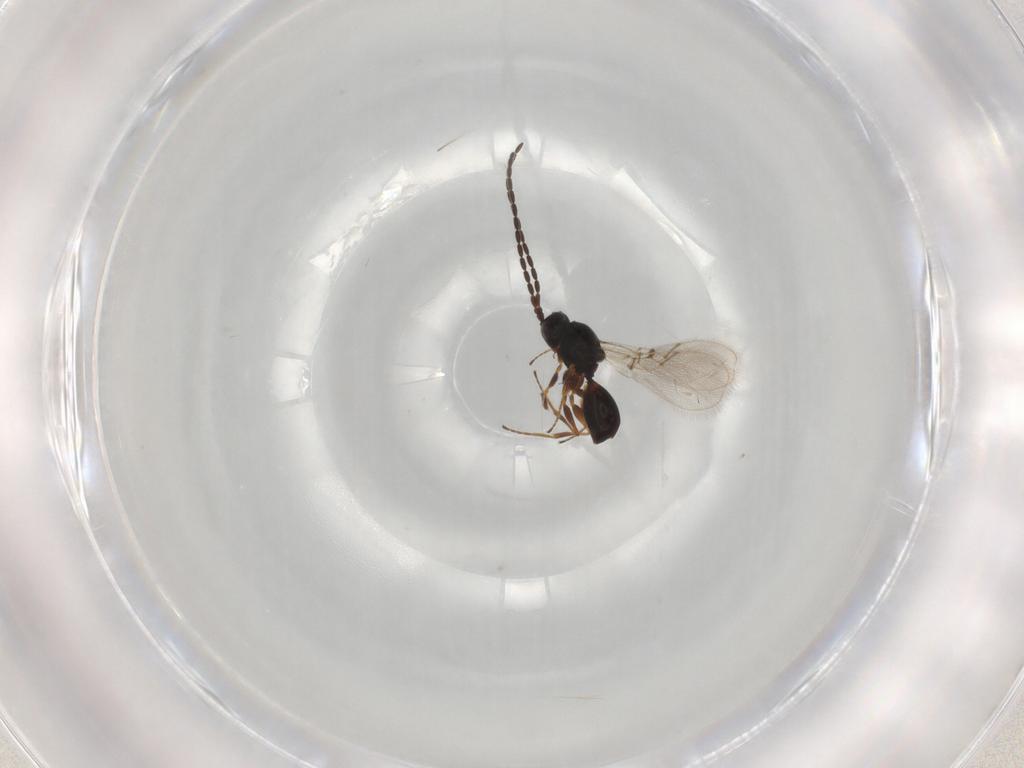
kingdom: Animalia
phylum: Arthropoda
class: Insecta
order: Hymenoptera
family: Figitidae
